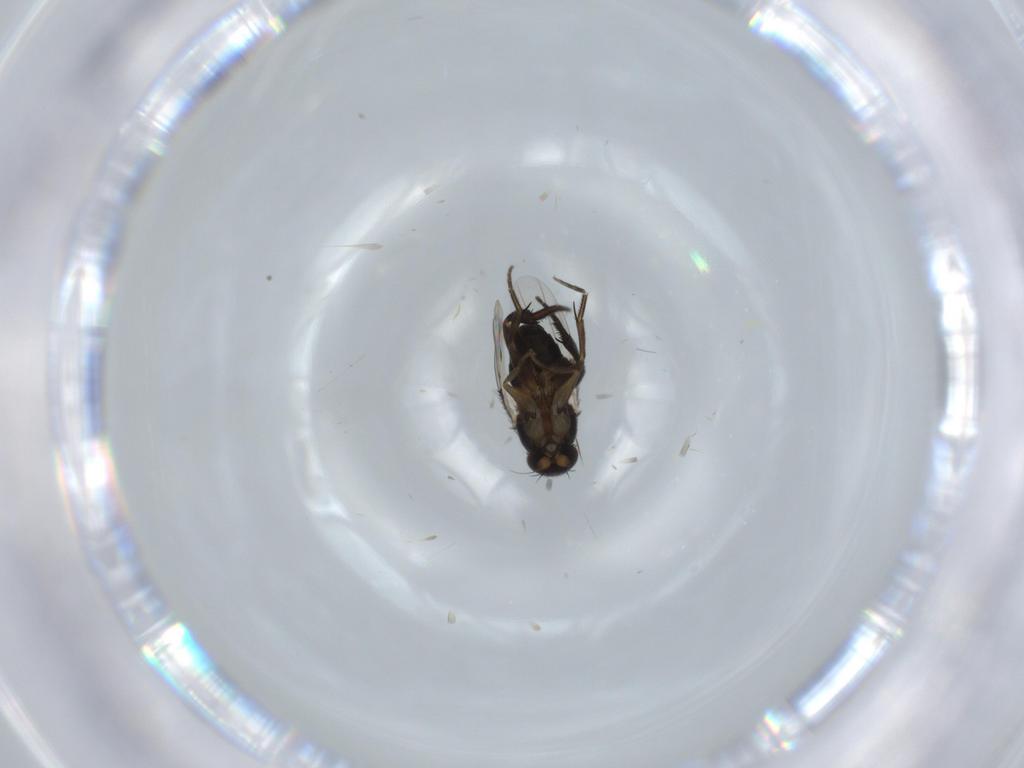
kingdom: Animalia
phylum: Arthropoda
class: Insecta
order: Diptera
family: Phoridae
